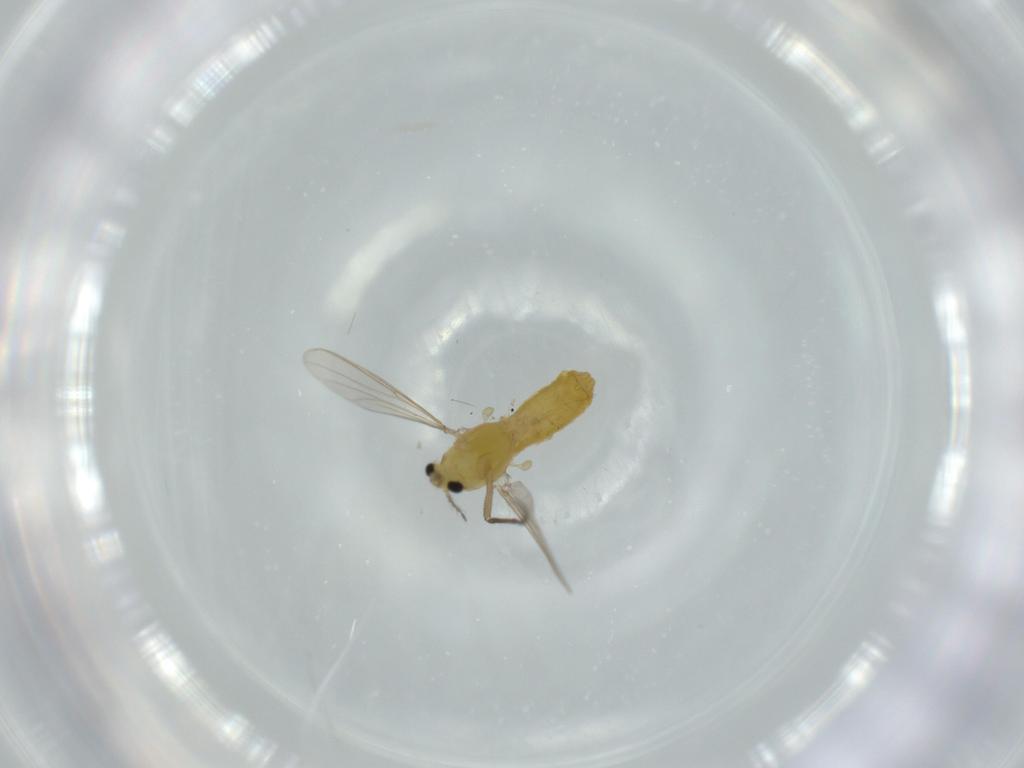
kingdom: Animalia
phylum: Arthropoda
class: Insecta
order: Diptera
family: Chironomidae
